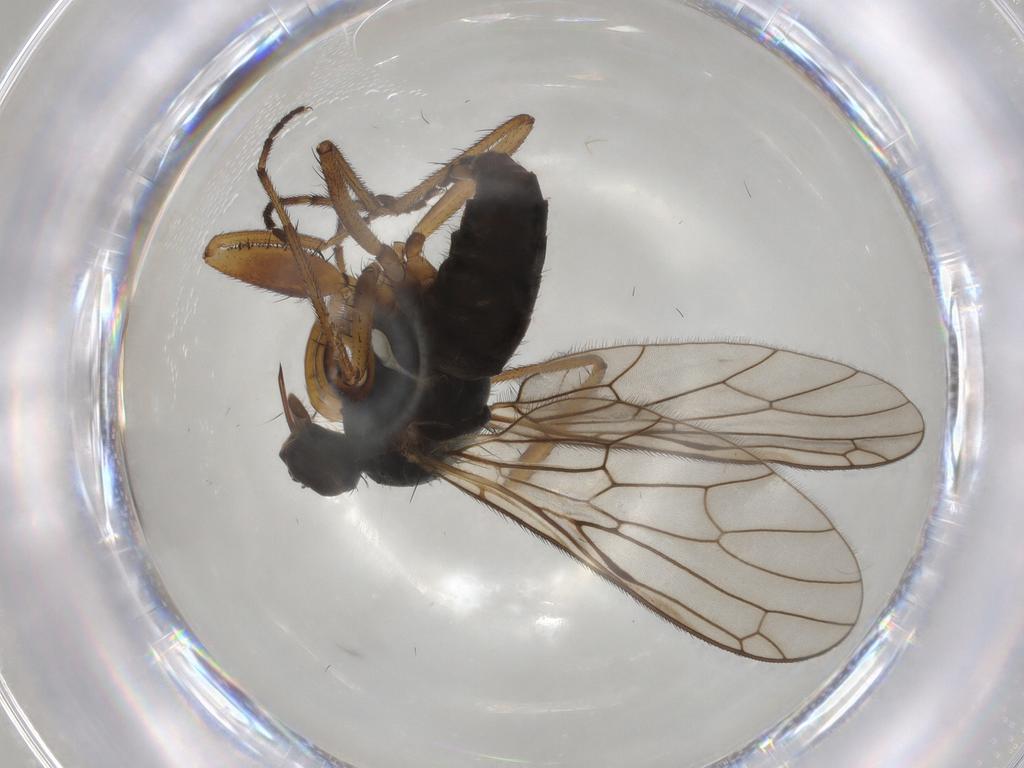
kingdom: Animalia
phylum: Arthropoda
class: Insecta
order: Diptera
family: Empididae
